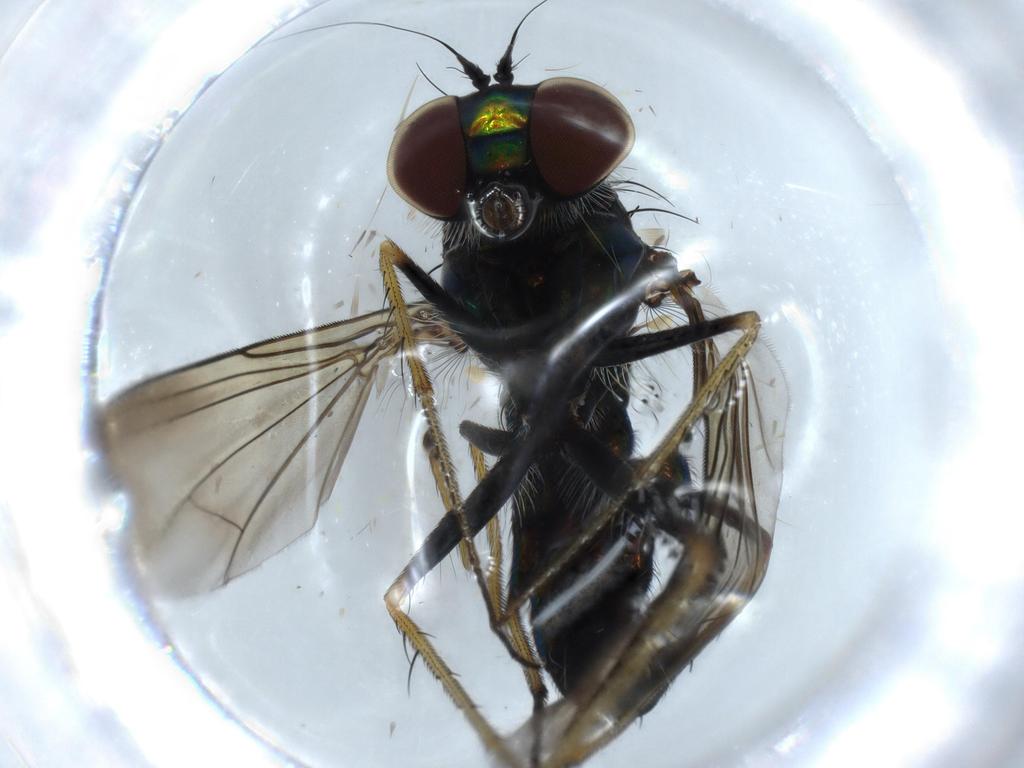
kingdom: Animalia
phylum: Arthropoda
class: Insecta
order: Diptera
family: Dolichopodidae
